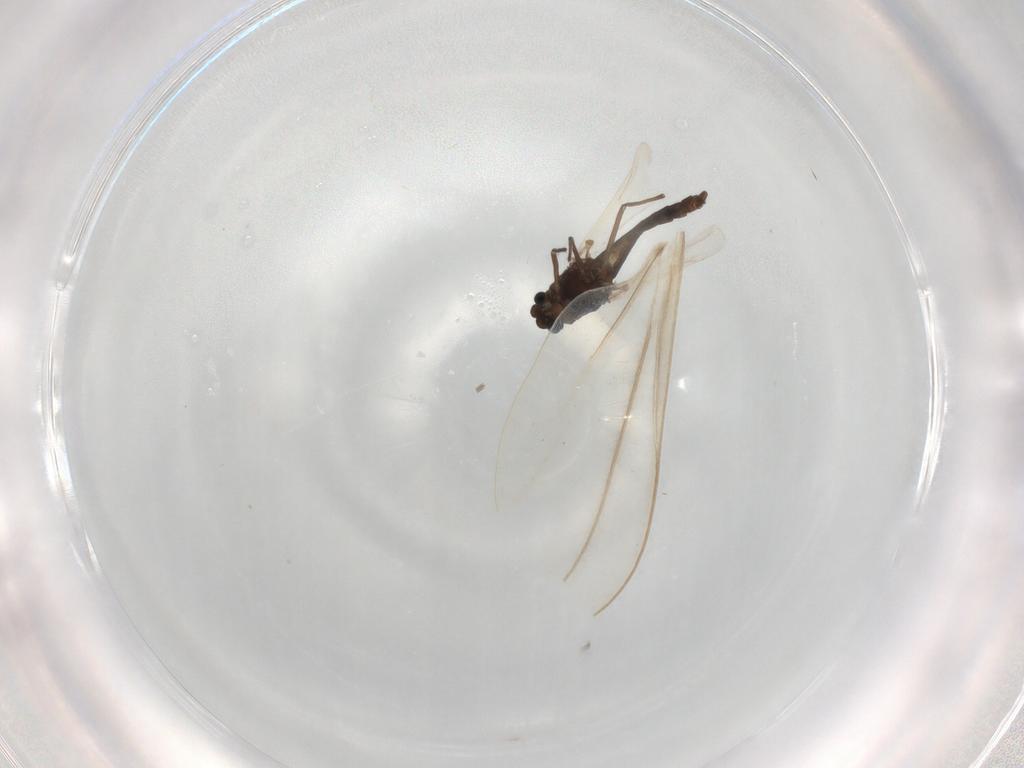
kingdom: Animalia
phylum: Arthropoda
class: Insecta
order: Diptera
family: Chironomidae
